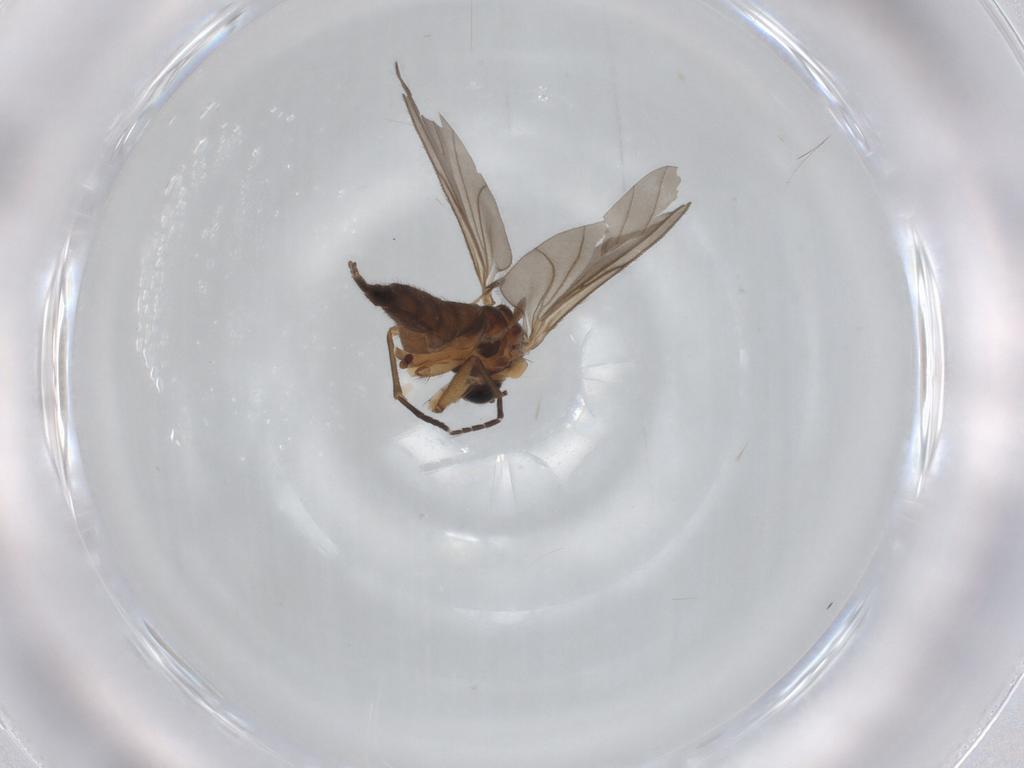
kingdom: Animalia
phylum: Arthropoda
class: Insecta
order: Diptera
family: Sciaridae
